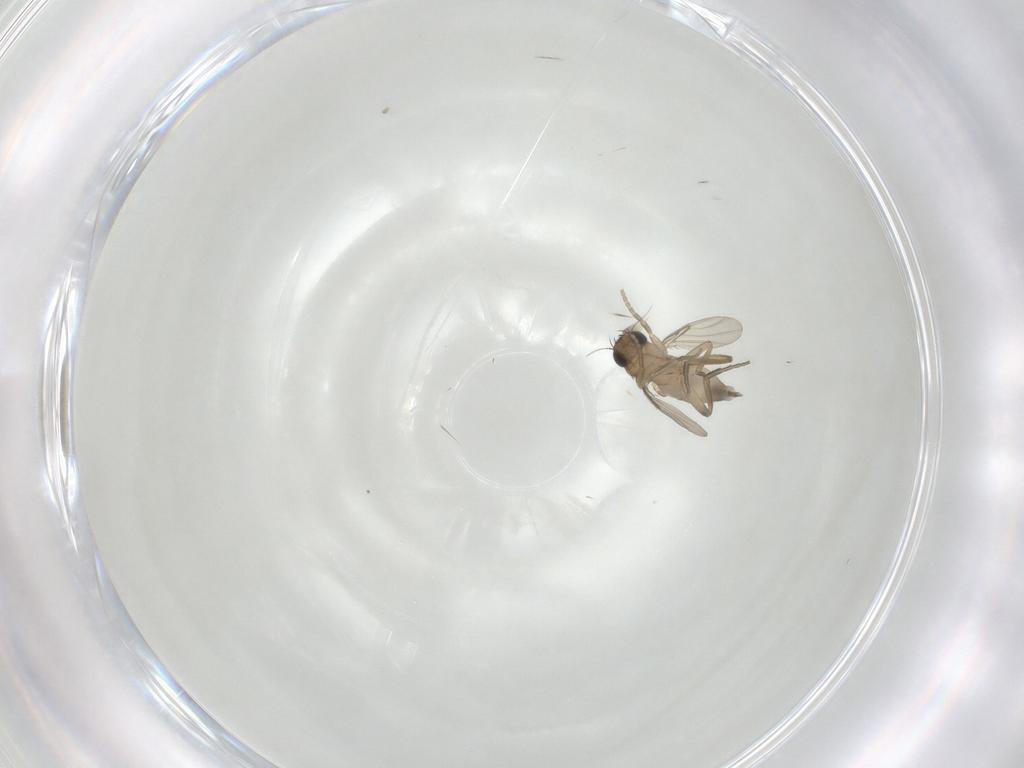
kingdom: Animalia
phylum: Arthropoda
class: Insecta
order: Diptera
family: Phoridae
